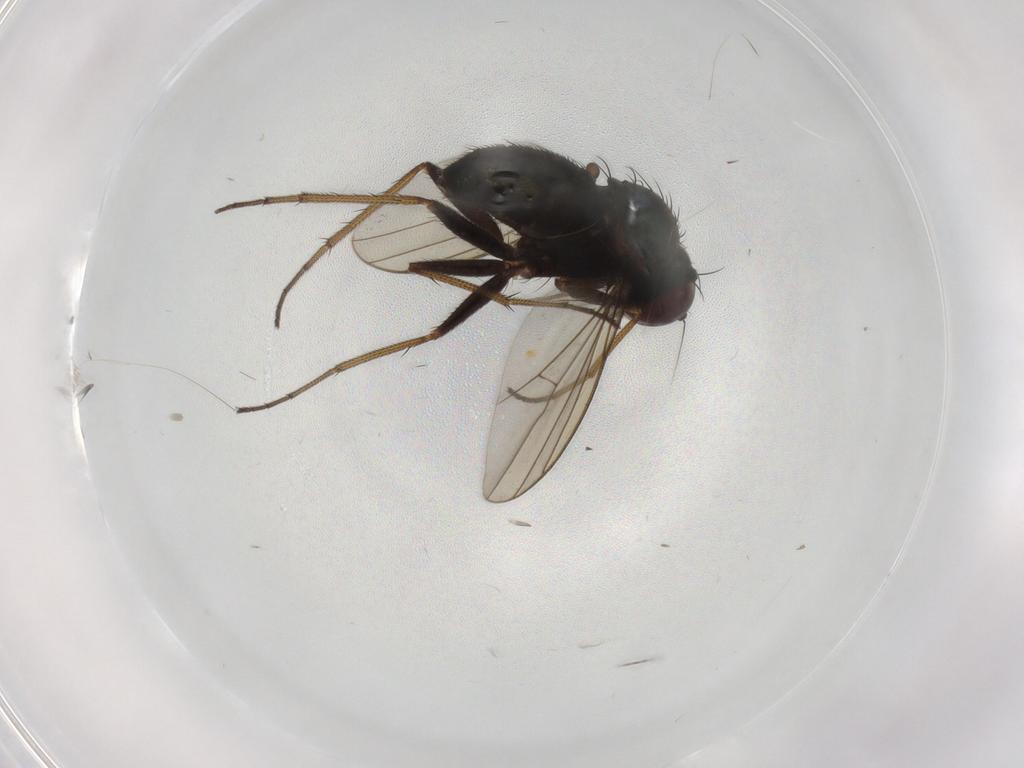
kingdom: Animalia
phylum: Arthropoda
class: Insecta
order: Diptera
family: Dolichopodidae
